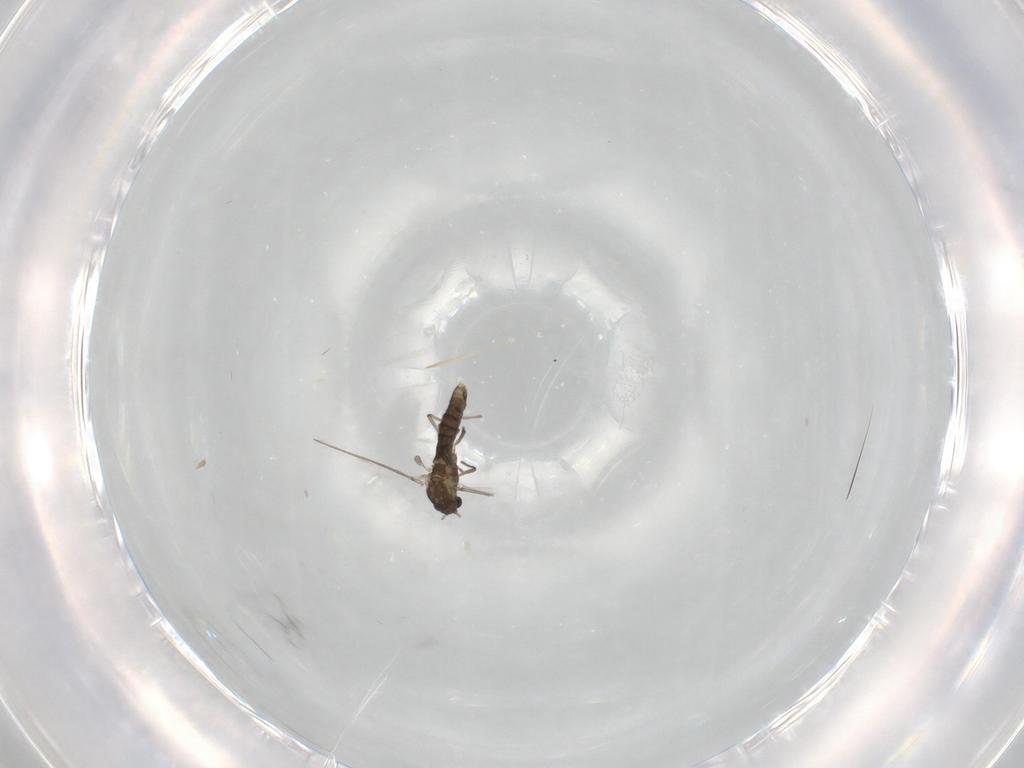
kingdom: Animalia
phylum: Arthropoda
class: Insecta
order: Diptera
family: Chironomidae
